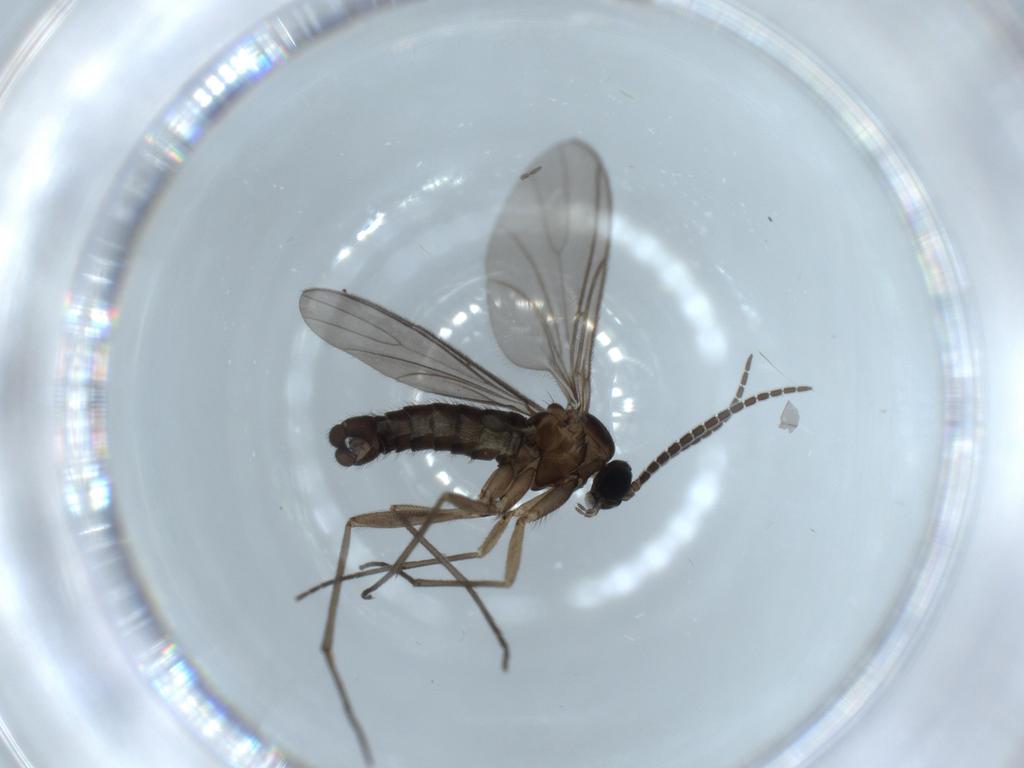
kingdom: Animalia
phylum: Arthropoda
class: Insecta
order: Diptera
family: Sciaridae
